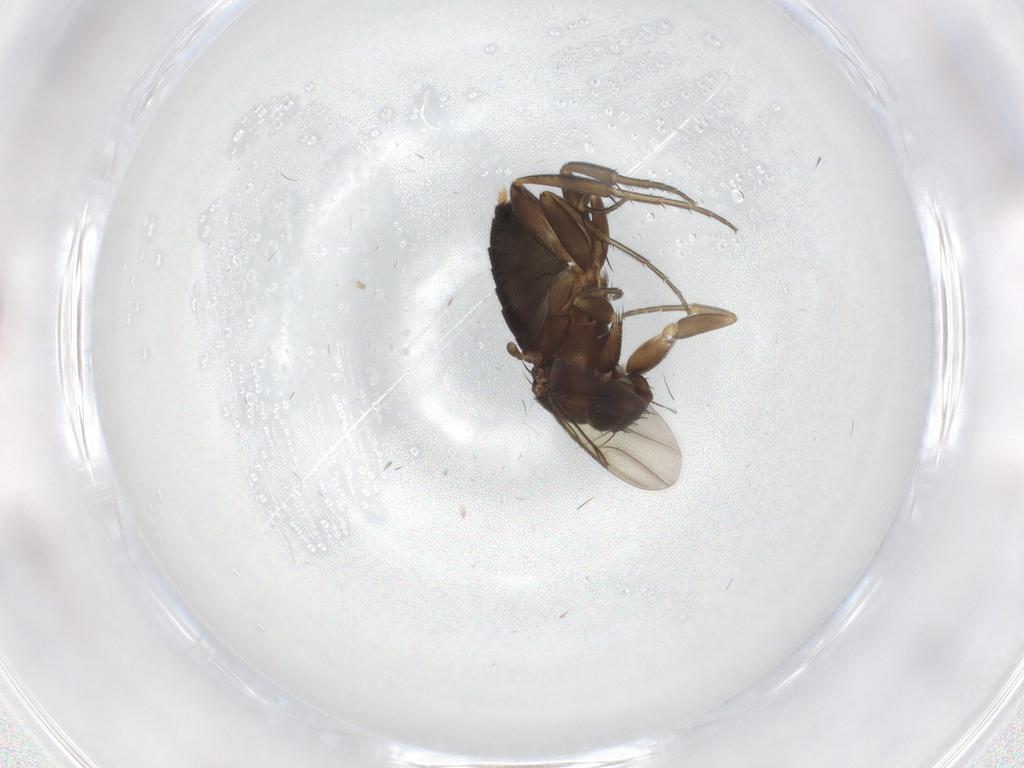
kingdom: Animalia
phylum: Arthropoda
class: Insecta
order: Diptera
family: Phoridae
